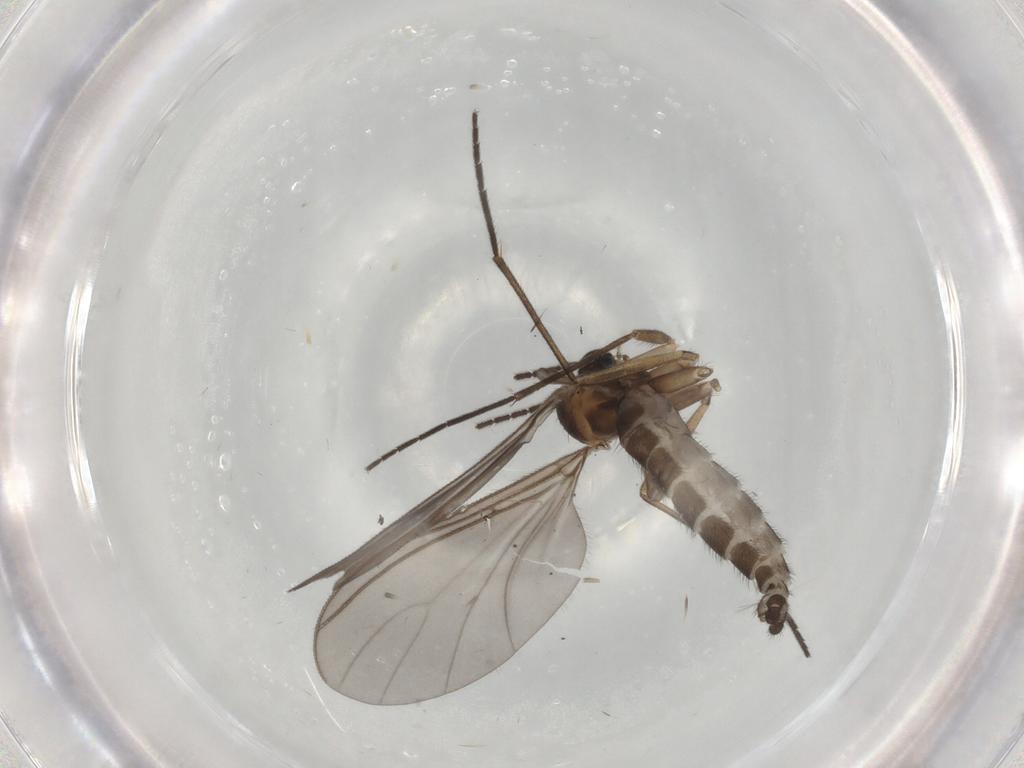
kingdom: Animalia
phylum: Arthropoda
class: Insecta
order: Diptera
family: Sciaridae
